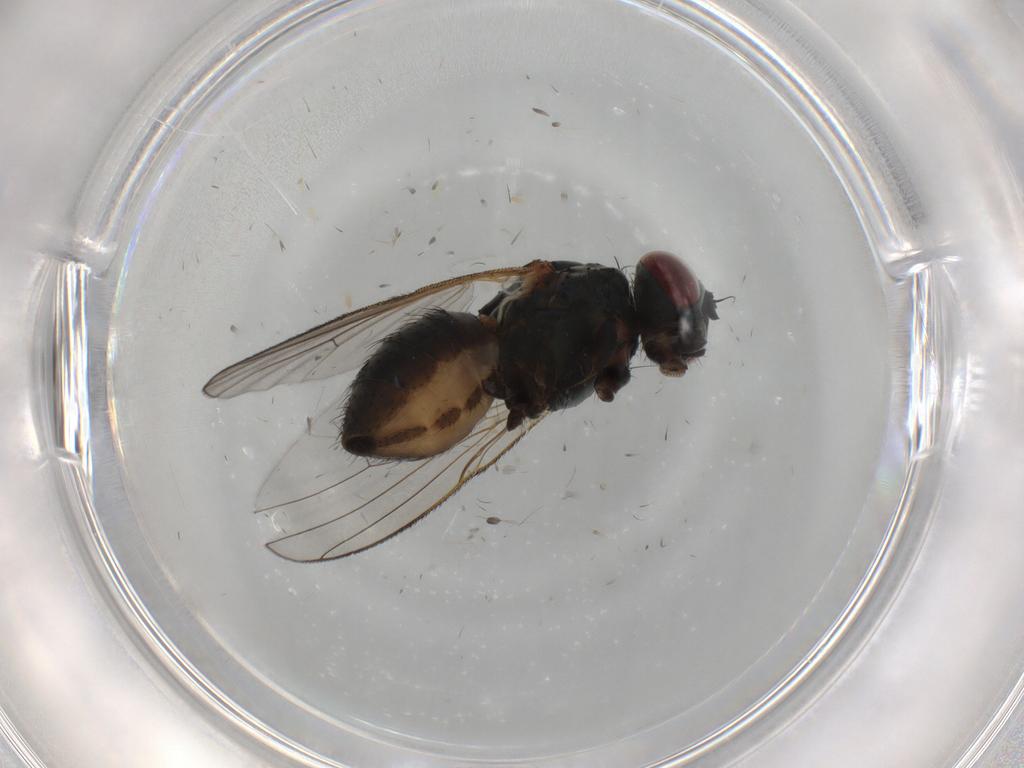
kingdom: Animalia
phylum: Arthropoda
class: Insecta
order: Diptera
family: Muscidae
